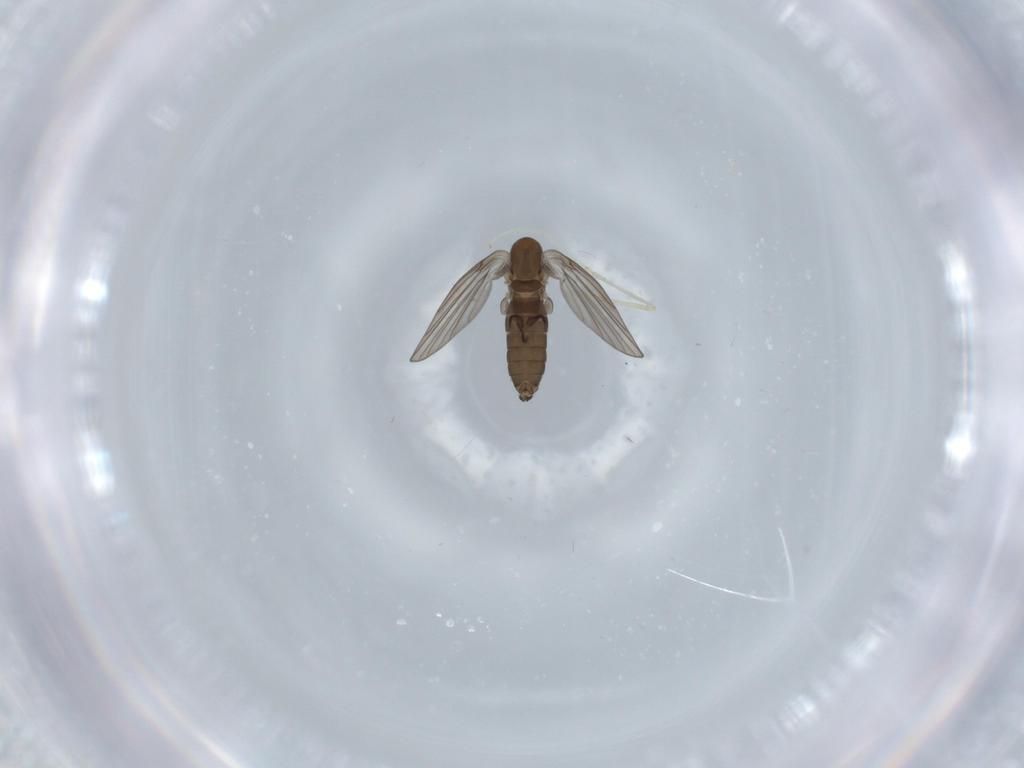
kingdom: Animalia
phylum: Arthropoda
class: Insecta
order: Diptera
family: Psychodidae
